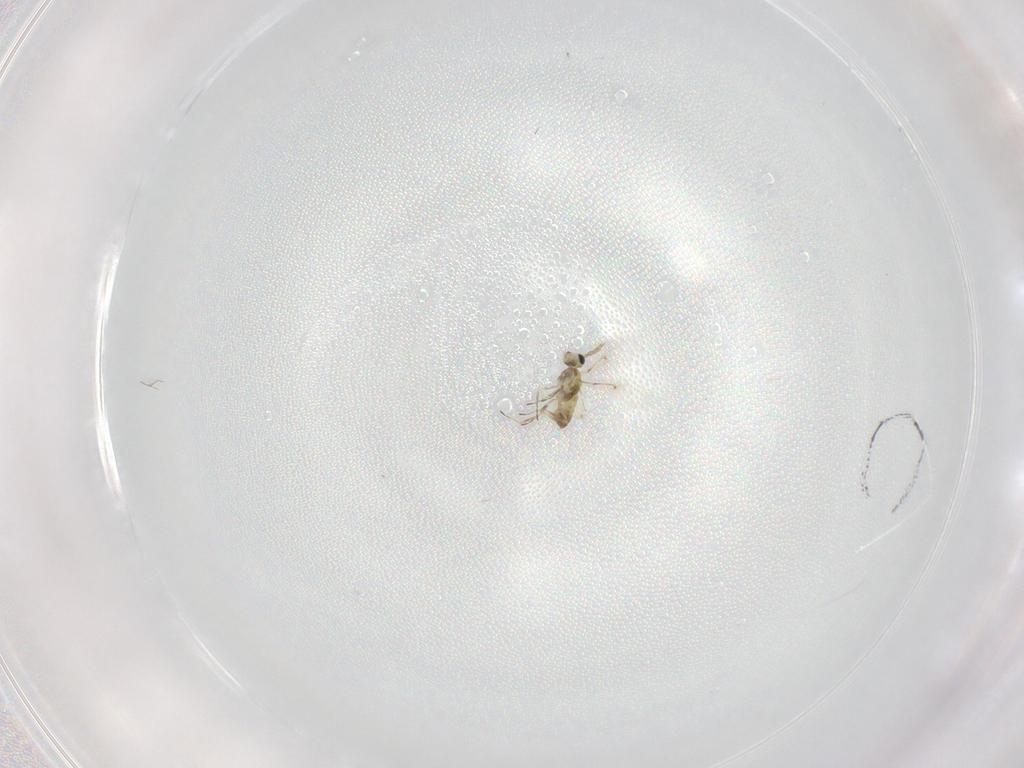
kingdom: Animalia
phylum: Arthropoda
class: Insecta
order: Hymenoptera
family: Trichogrammatidae
